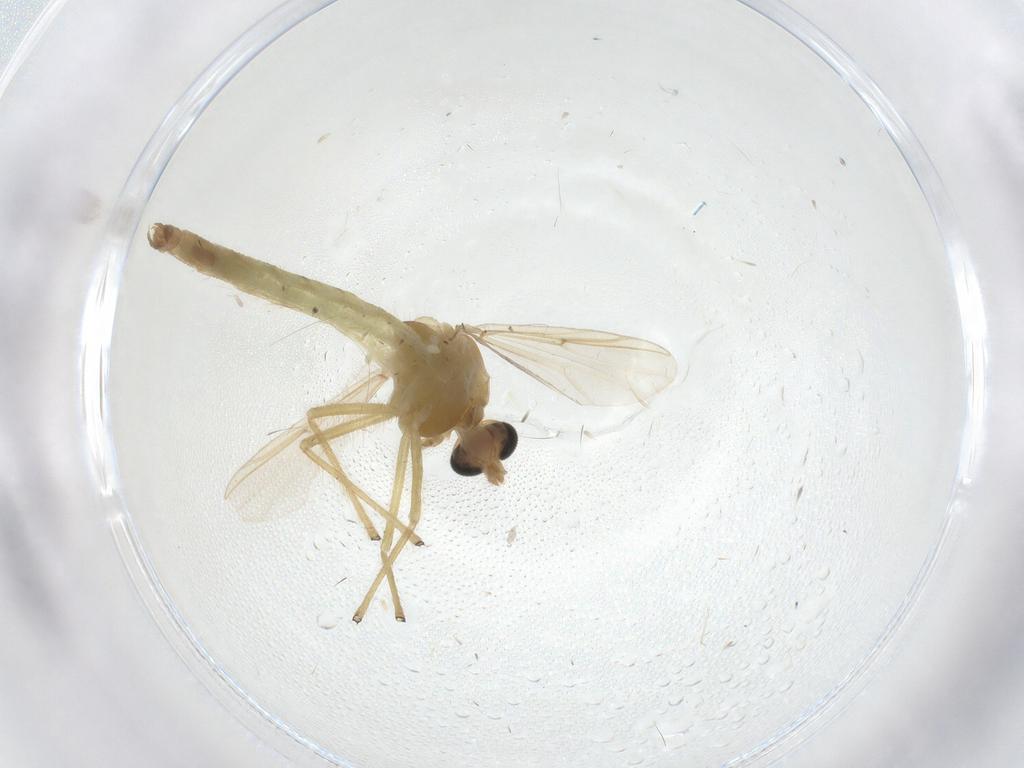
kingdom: Animalia
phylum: Arthropoda
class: Insecta
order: Diptera
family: Chironomidae
